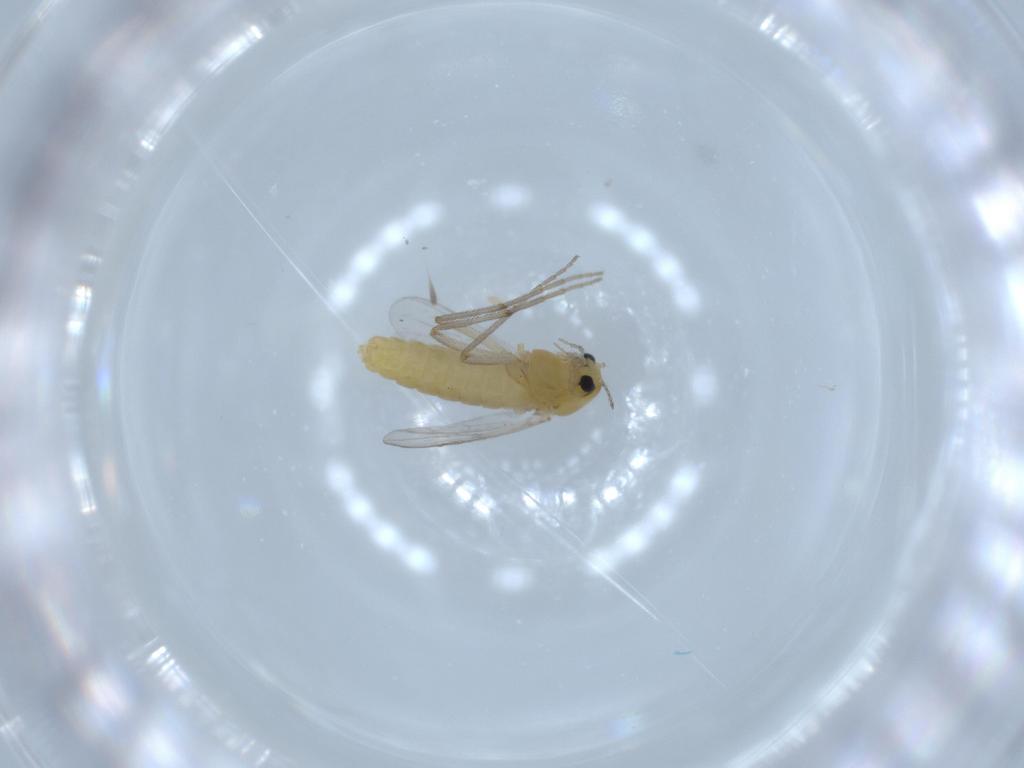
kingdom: Animalia
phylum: Arthropoda
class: Insecta
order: Diptera
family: Chironomidae
